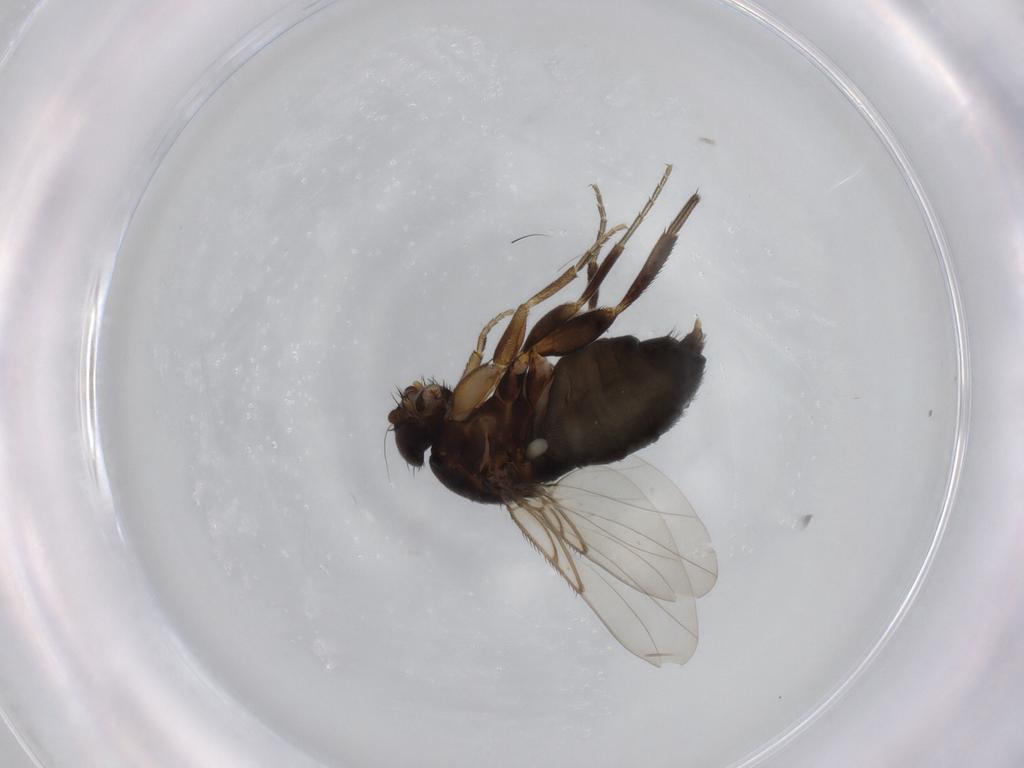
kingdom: Animalia
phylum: Arthropoda
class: Insecta
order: Diptera
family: Phoridae
